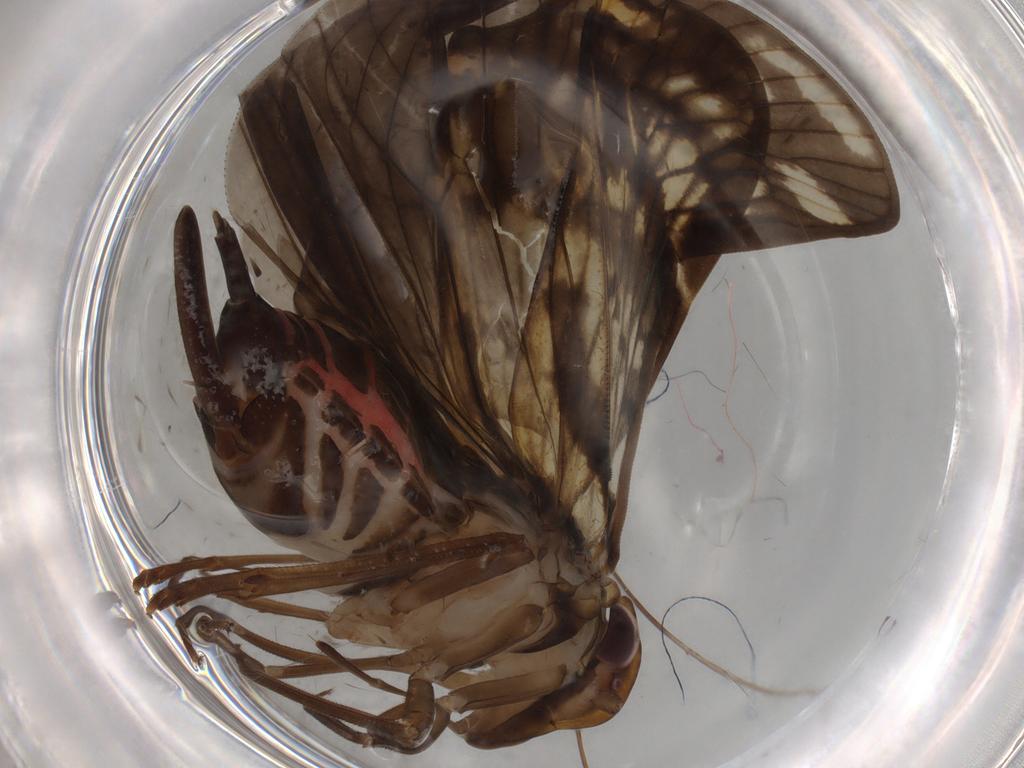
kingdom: Animalia
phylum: Arthropoda
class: Insecta
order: Hemiptera
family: Cixiidae
